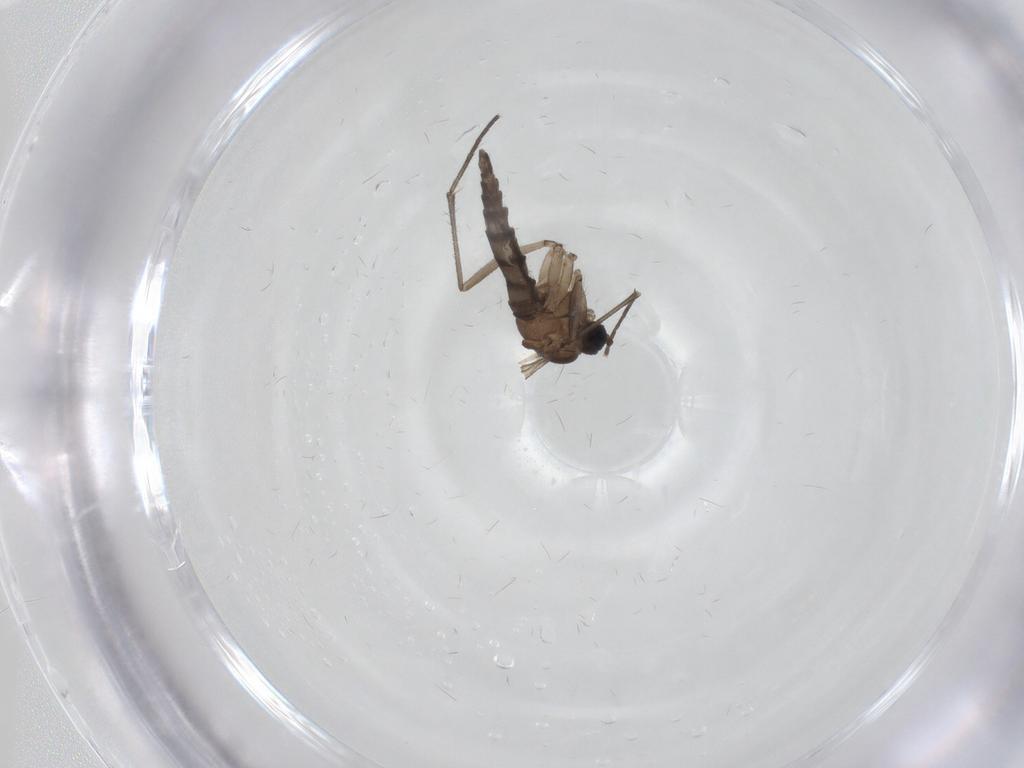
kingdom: Animalia
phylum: Arthropoda
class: Insecta
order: Diptera
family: Sciaridae
